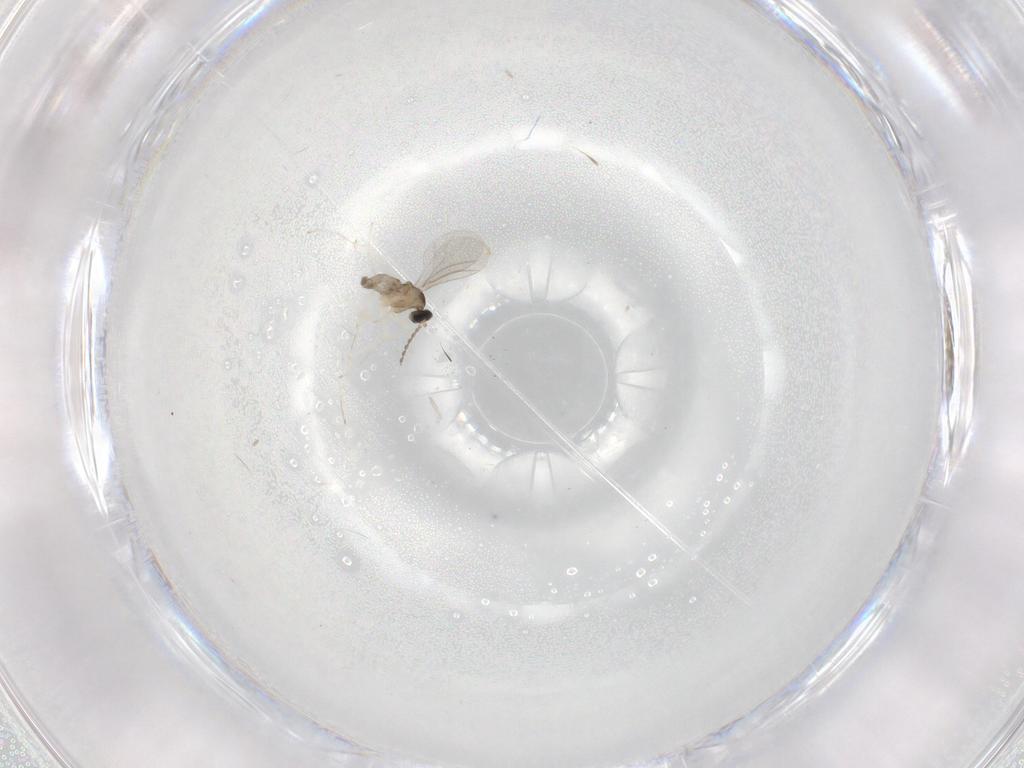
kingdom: Animalia
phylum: Arthropoda
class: Insecta
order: Diptera
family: Cecidomyiidae
